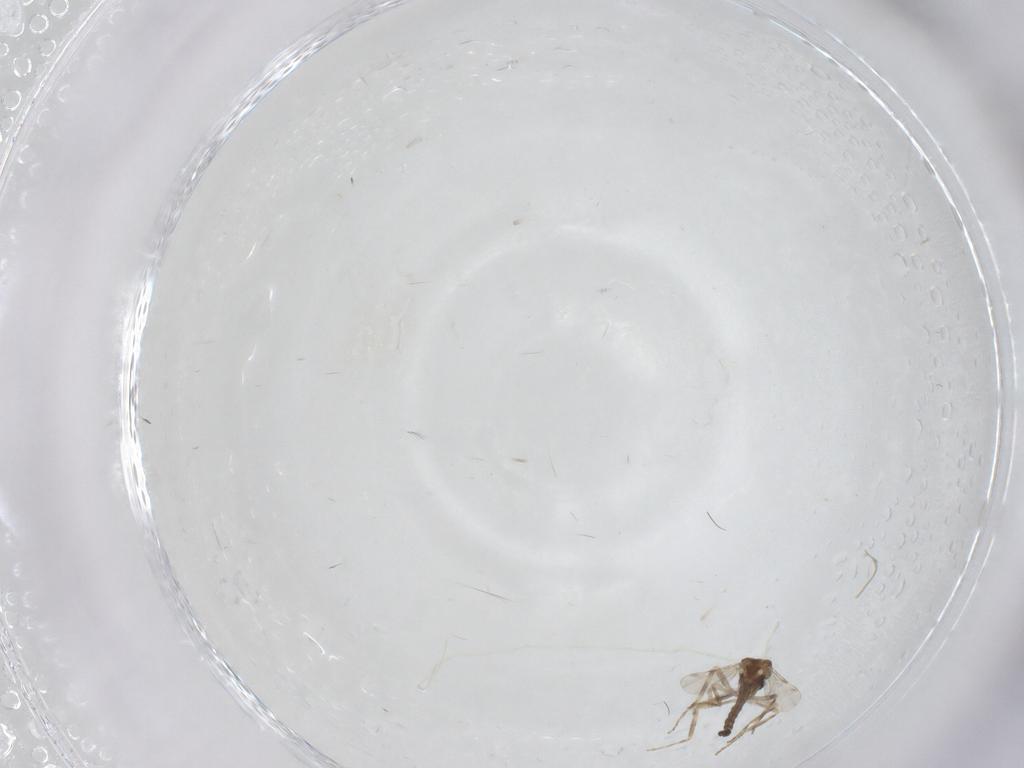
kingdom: Animalia
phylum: Arthropoda
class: Insecta
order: Diptera
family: Ceratopogonidae
